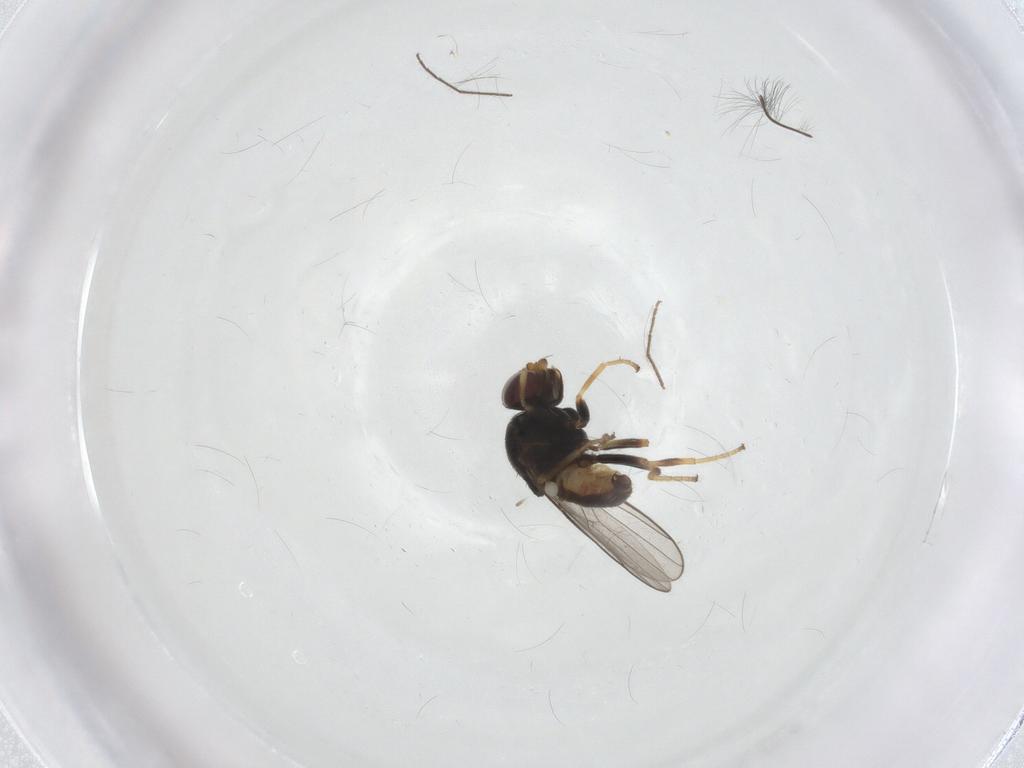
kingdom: Animalia
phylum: Arthropoda
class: Insecta
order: Diptera
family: Chloropidae
